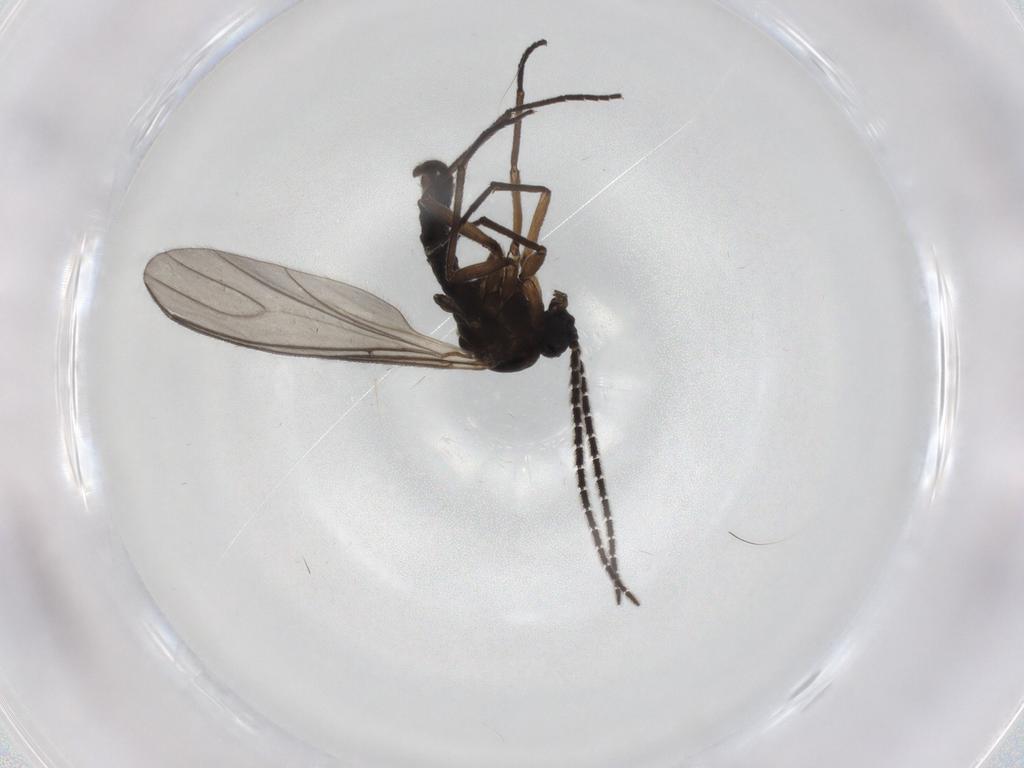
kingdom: Animalia
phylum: Arthropoda
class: Insecta
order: Diptera
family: Sciaridae
